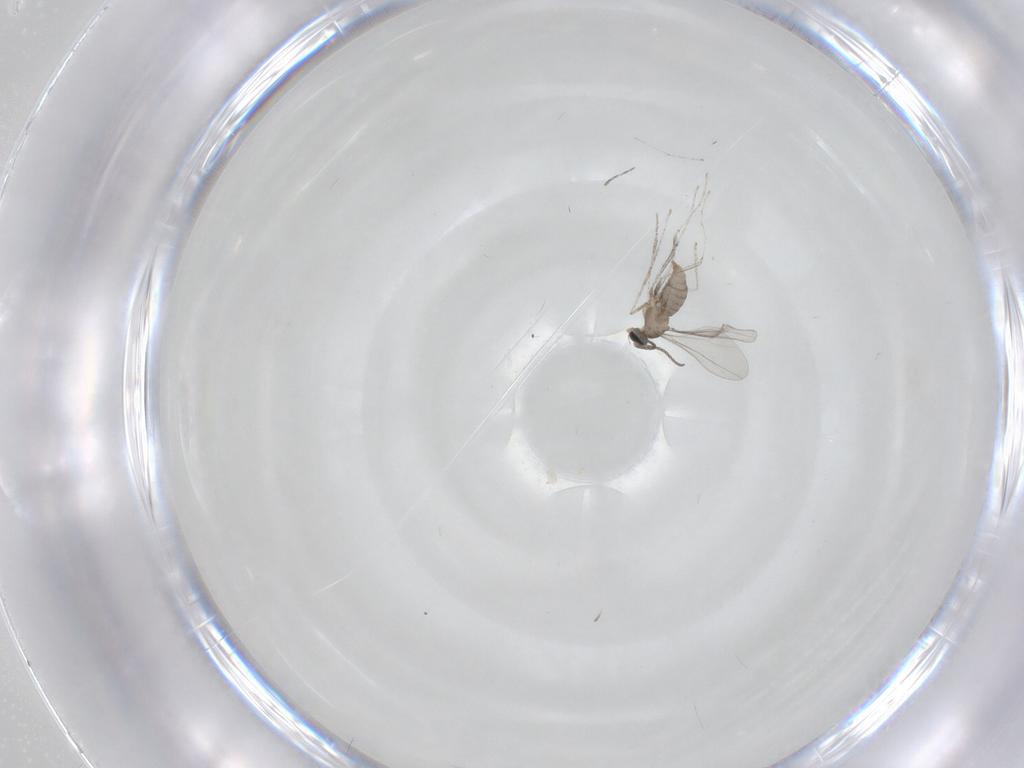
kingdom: Animalia
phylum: Arthropoda
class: Insecta
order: Diptera
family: Cecidomyiidae
